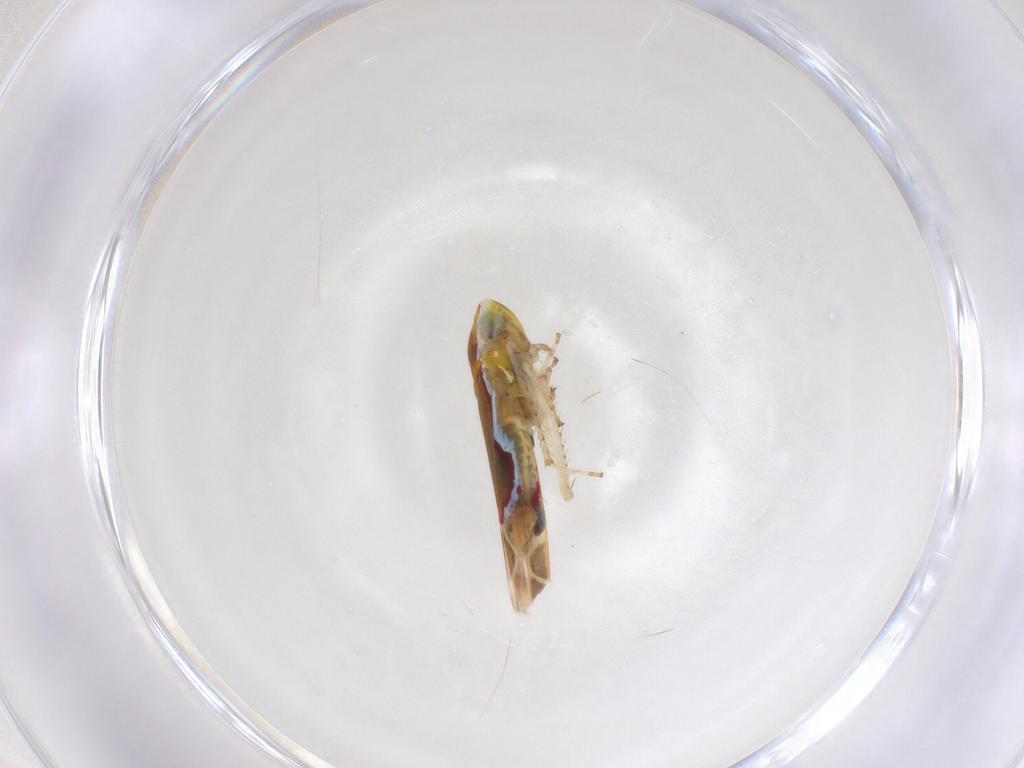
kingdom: Animalia
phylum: Arthropoda
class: Insecta
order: Hemiptera
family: Cicadellidae
